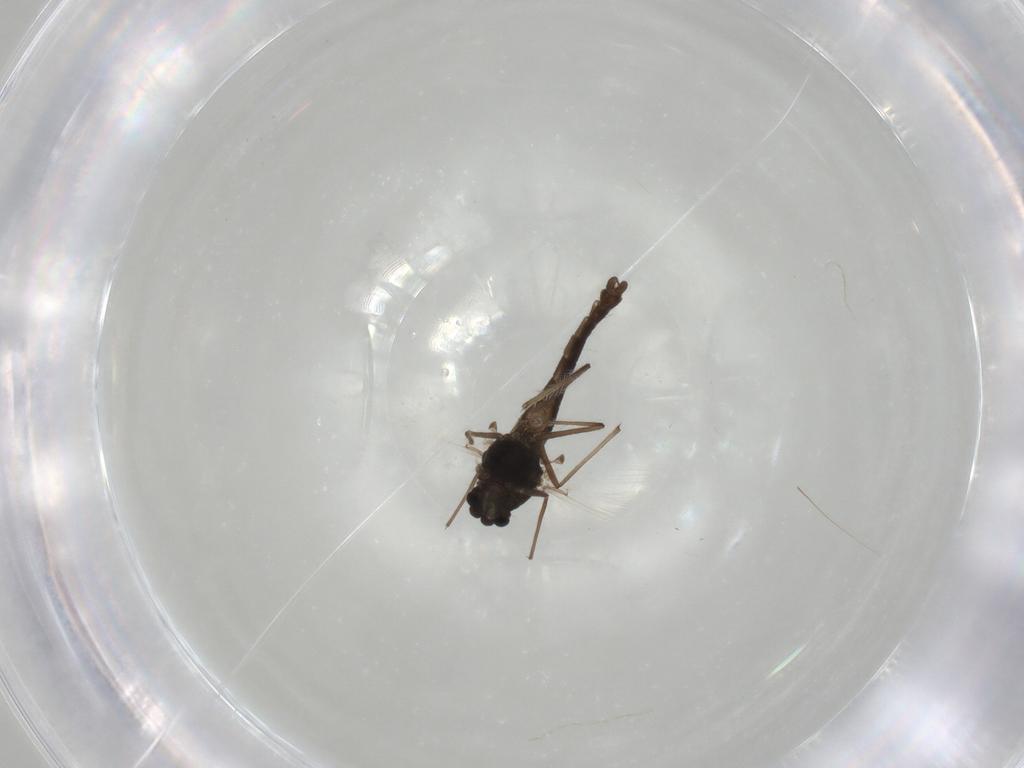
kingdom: Animalia
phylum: Arthropoda
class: Insecta
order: Diptera
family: Chironomidae
